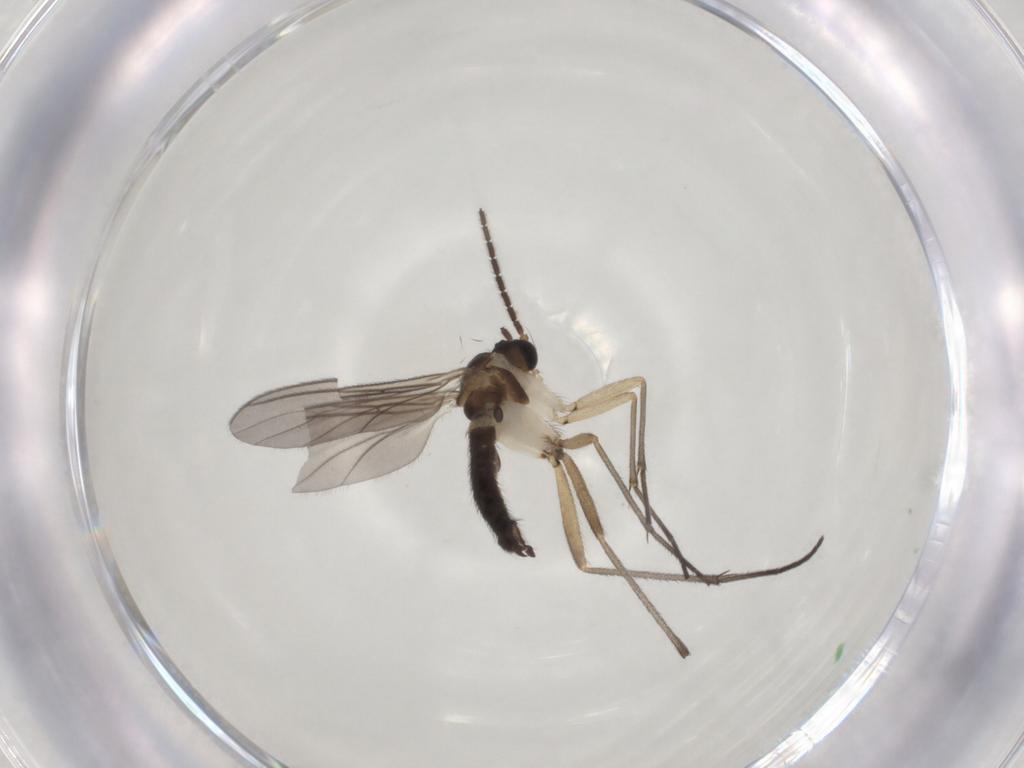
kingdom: Animalia
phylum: Arthropoda
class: Insecta
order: Diptera
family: Sciaridae
